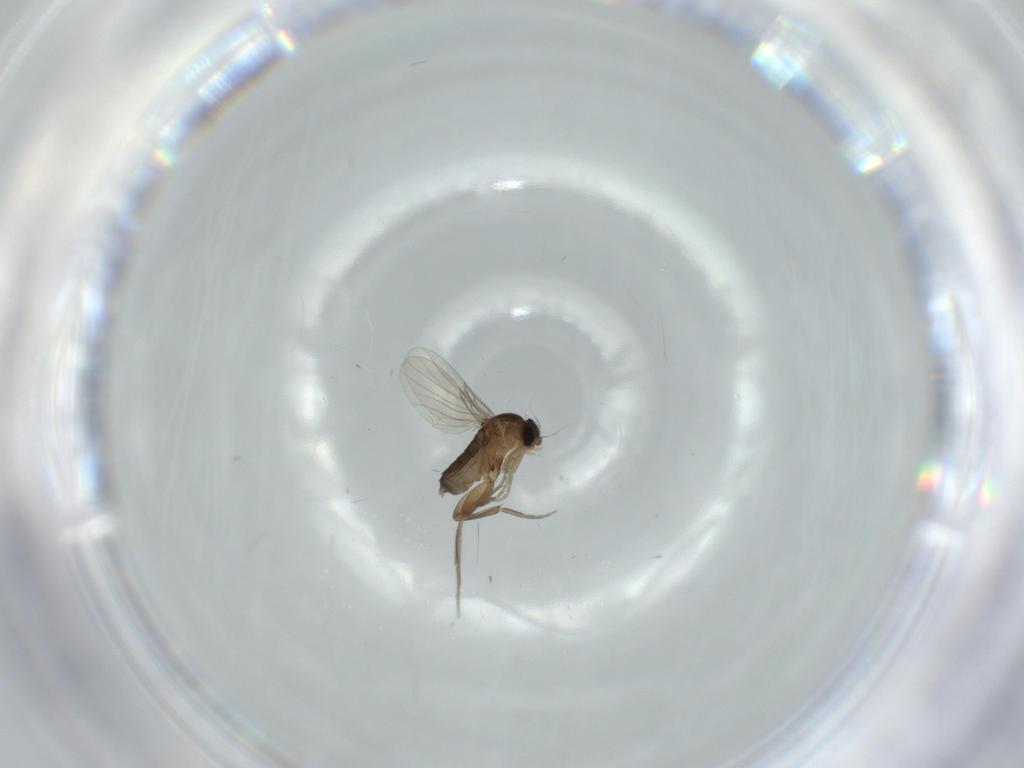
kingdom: Animalia
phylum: Arthropoda
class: Insecta
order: Diptera
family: Phoridae
